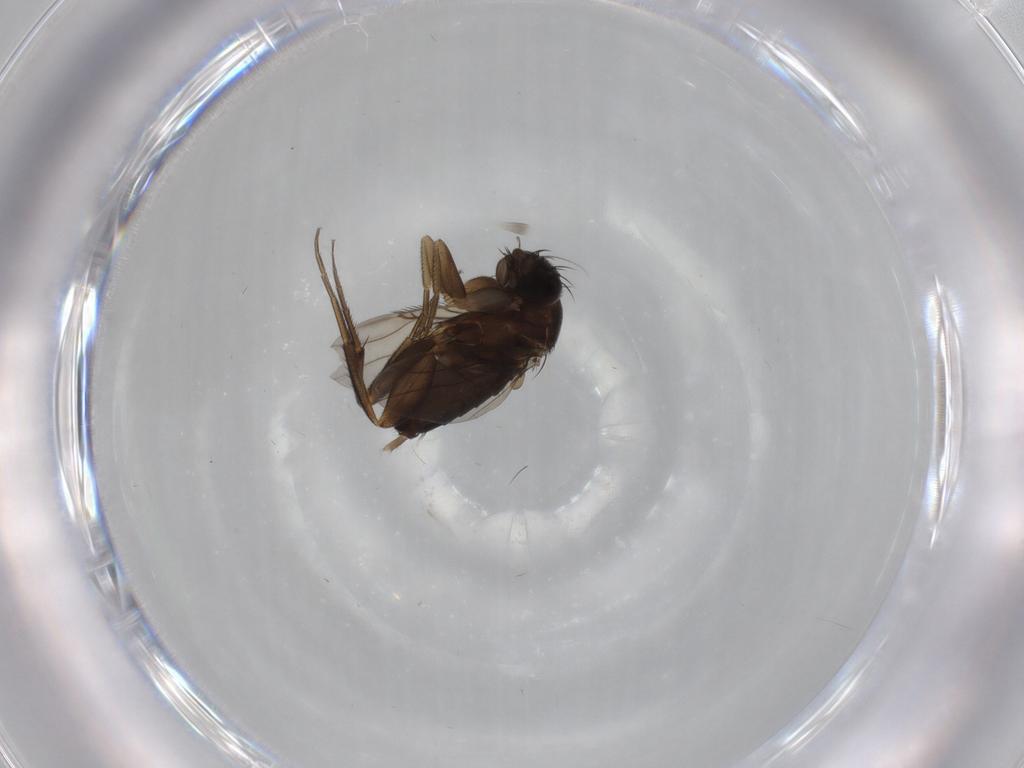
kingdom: Animalia
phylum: Arthropoda
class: Insecta
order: Diptera
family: Phoridae
